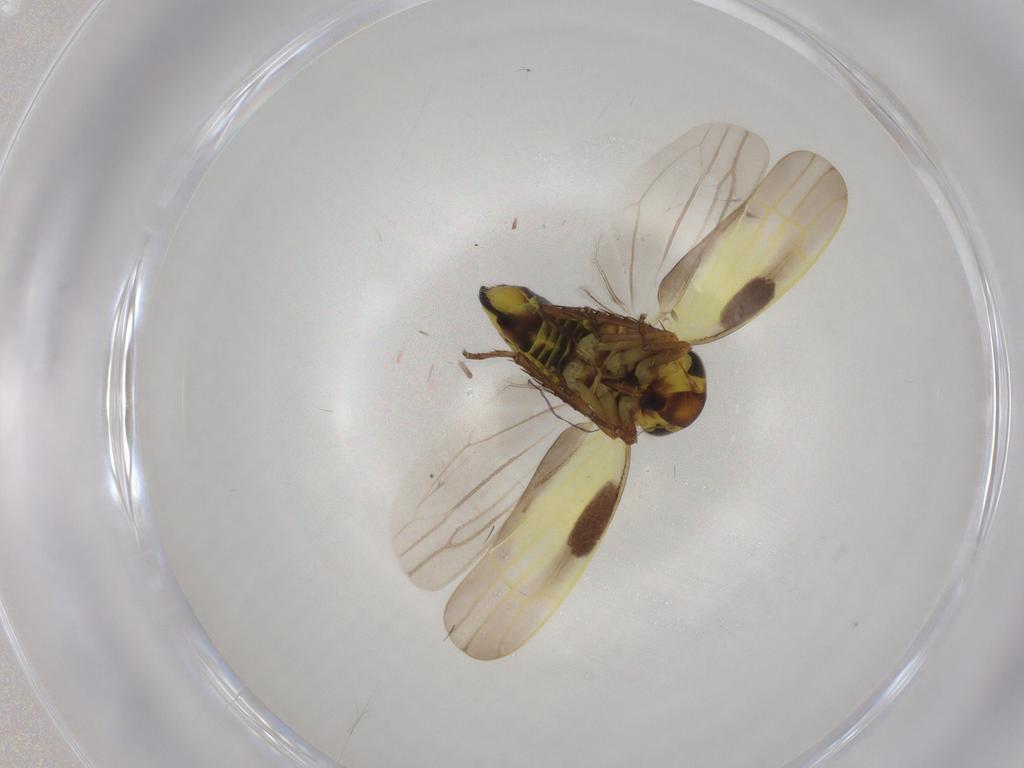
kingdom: Animalia
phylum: Arthropoda
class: Insecta
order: Hemiptera
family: Cicadellidae
